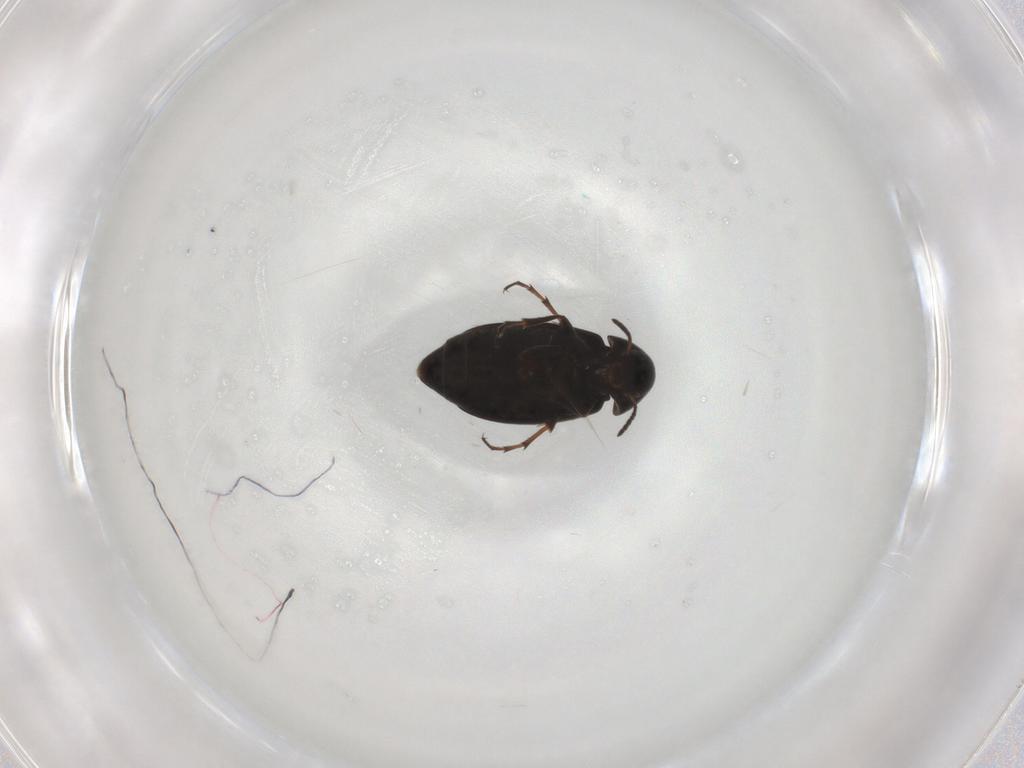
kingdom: Animalia
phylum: Arthropoda
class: Insecta
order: Coleoptera
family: Scraptiidae
